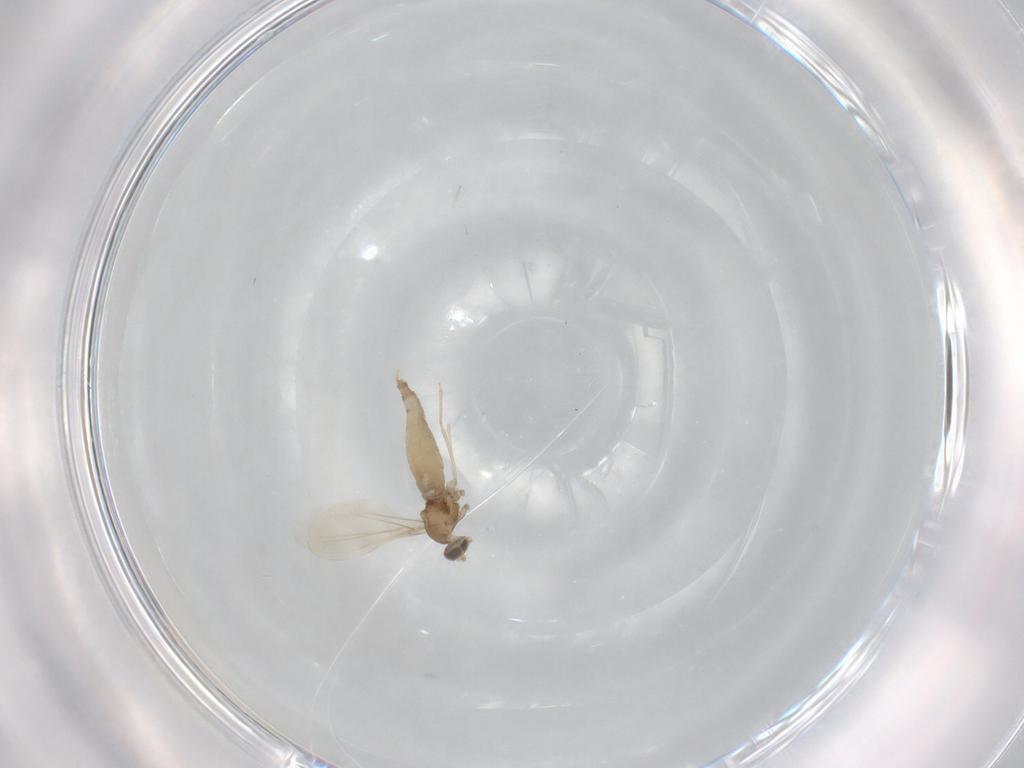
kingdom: Animalia
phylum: Arthropoda
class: Insecta
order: Diptera
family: Cecidomyiidae
